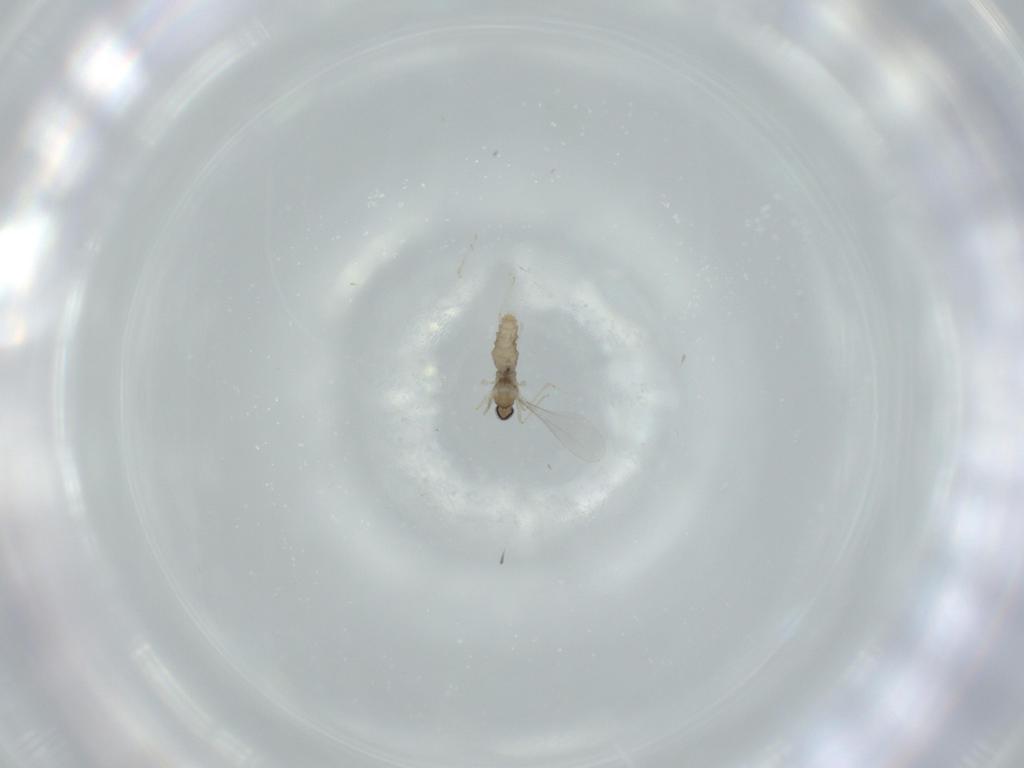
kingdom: Animalia
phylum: Arthropoda
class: Insecta
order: Diptera
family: Cecidomyiidae
